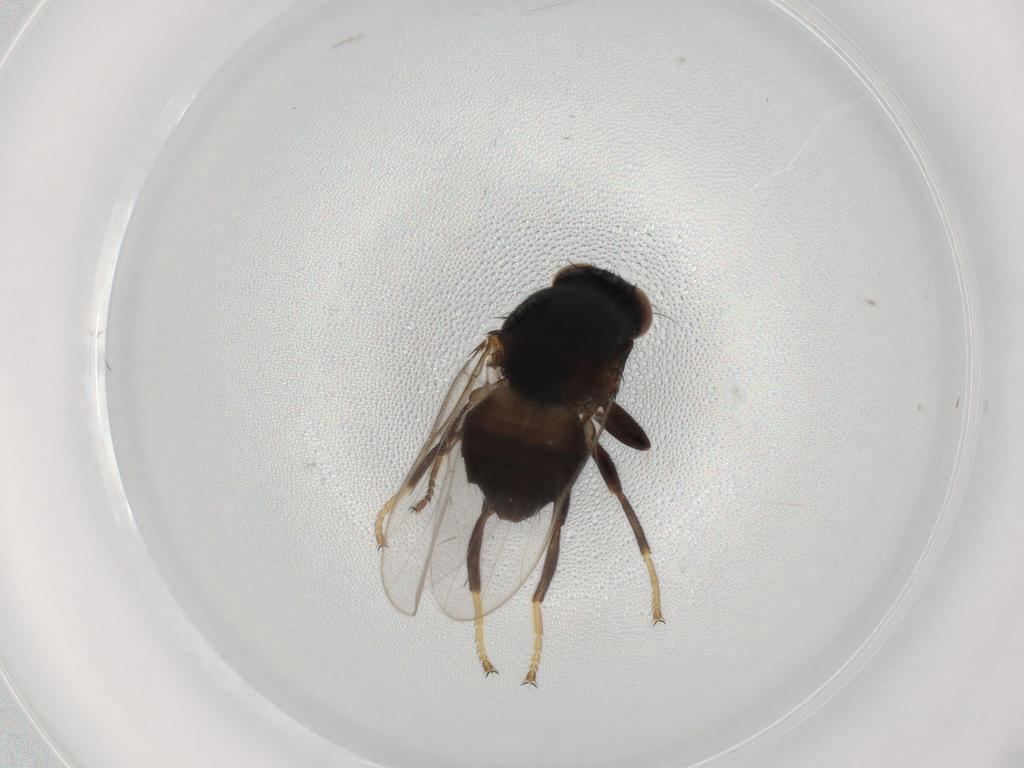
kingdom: Animalia
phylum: Arthropoda
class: Insecta
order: Diptera
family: Chloropidae
